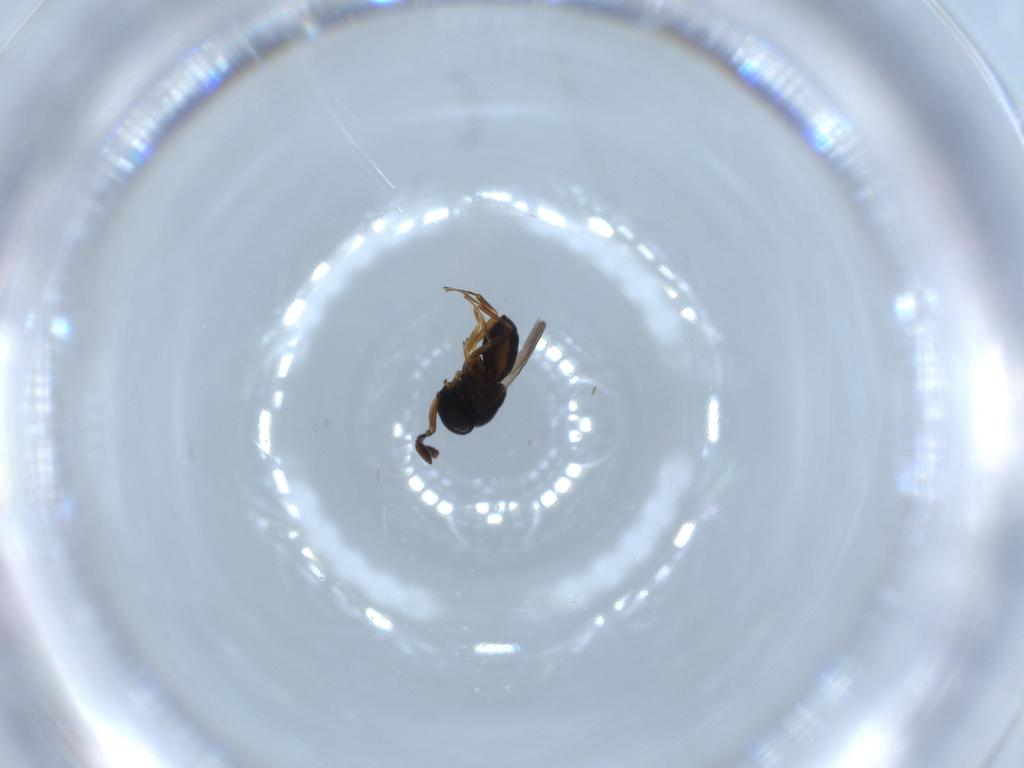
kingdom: Animalia
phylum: Arthropoda
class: Insecta
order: Hymenoptera
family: Scelionidae
